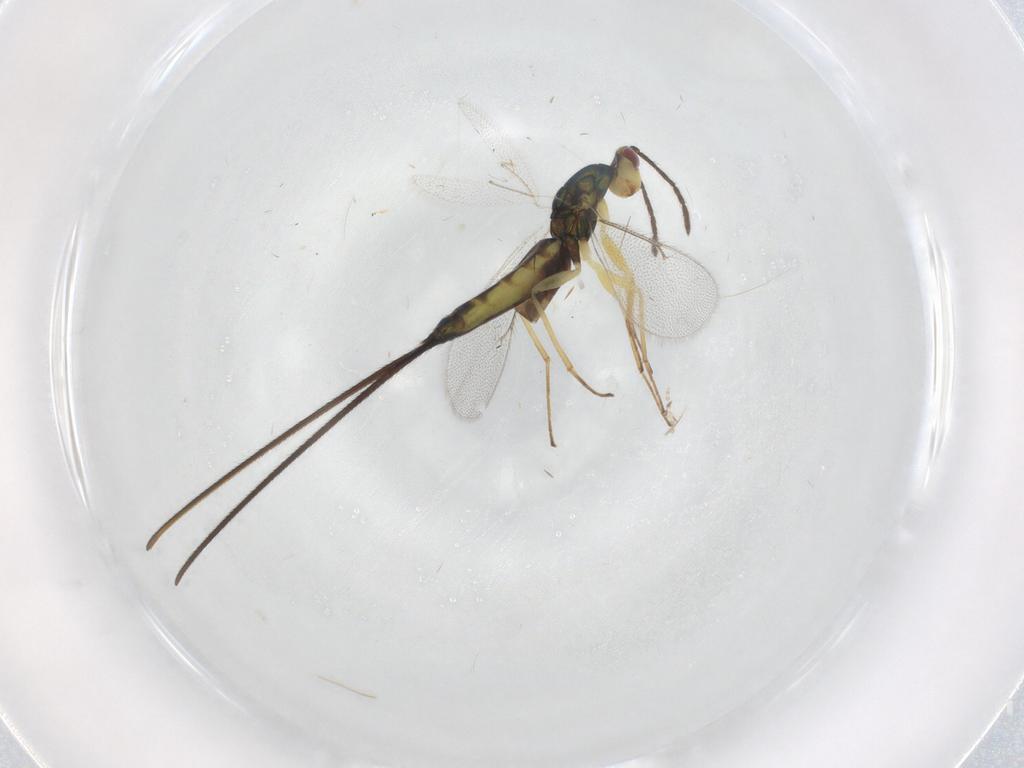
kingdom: Animalia
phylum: Arthropoda
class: Insecta
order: Hymenoptera
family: Eulophidae
